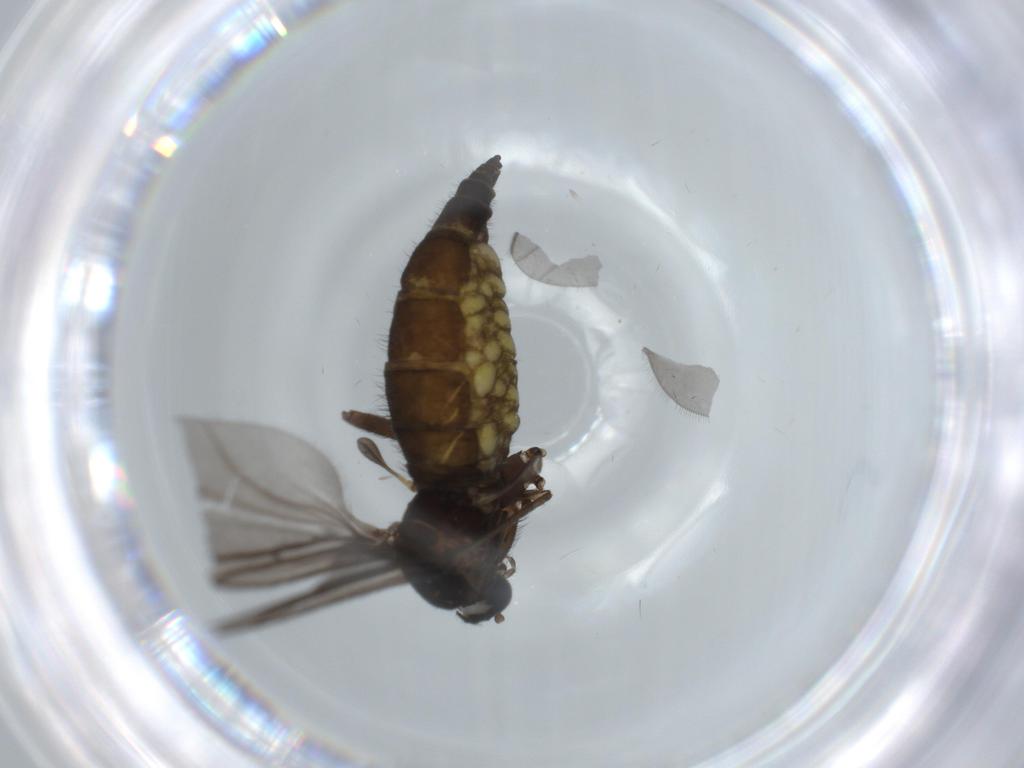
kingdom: Animalia
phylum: Arthropoda
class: Insecta
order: Diptera
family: Sciaridae
